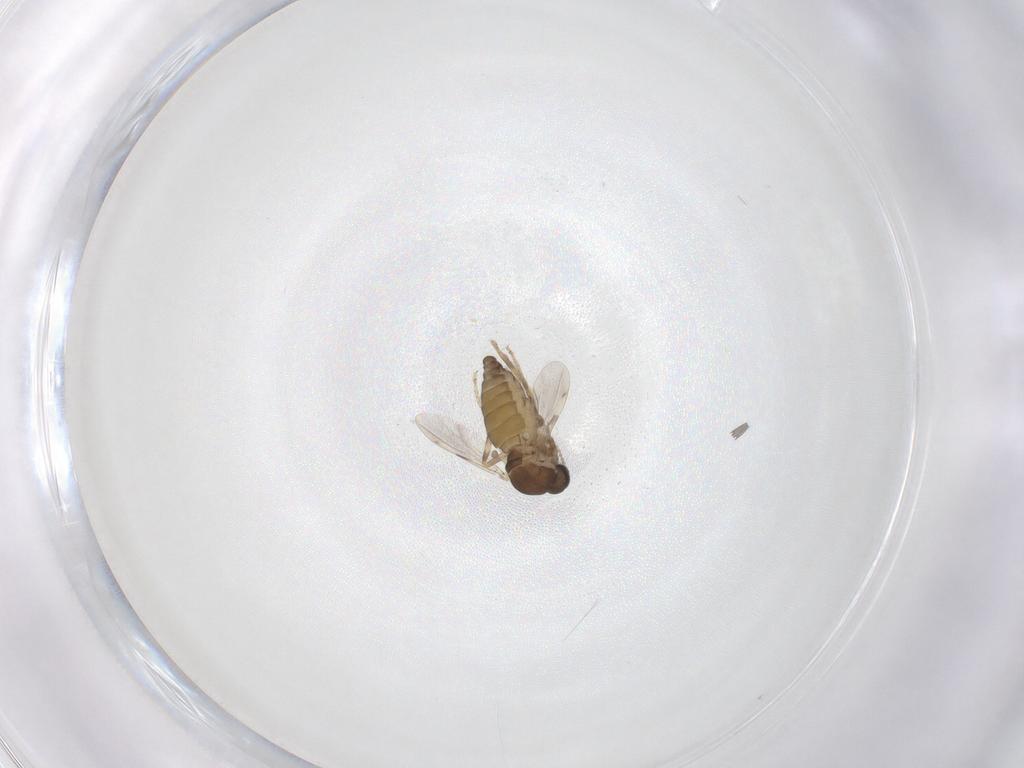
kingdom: Animalia
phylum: Arthropoda
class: Insecta
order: Diptera
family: Ceratopogonidae
